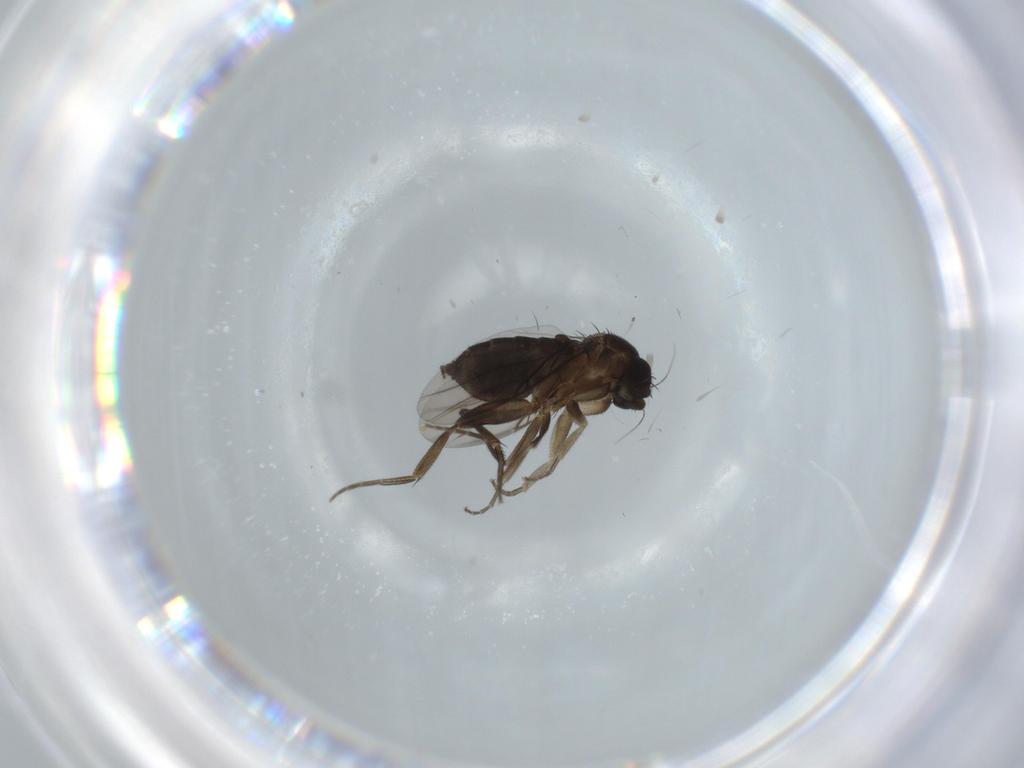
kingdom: Animalia
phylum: Arthropoda
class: Insecta
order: Diptera
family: Phoridae
